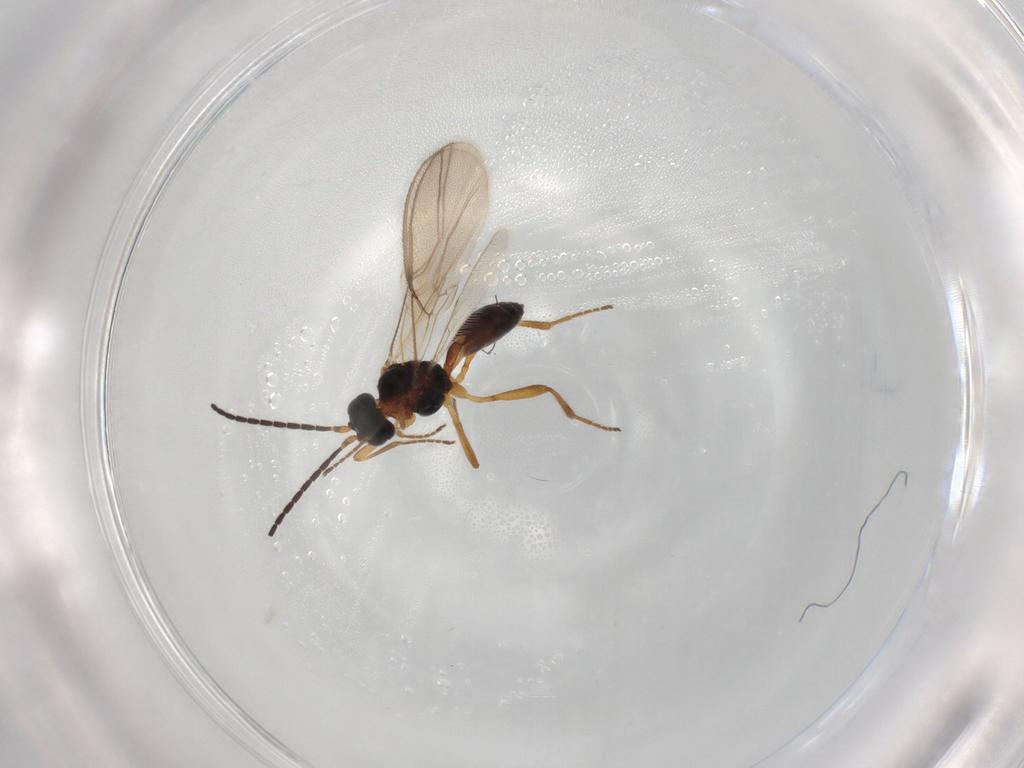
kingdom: Animalia
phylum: Arthropoda
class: Insecta
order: Hymenoptera
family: Braconidae
